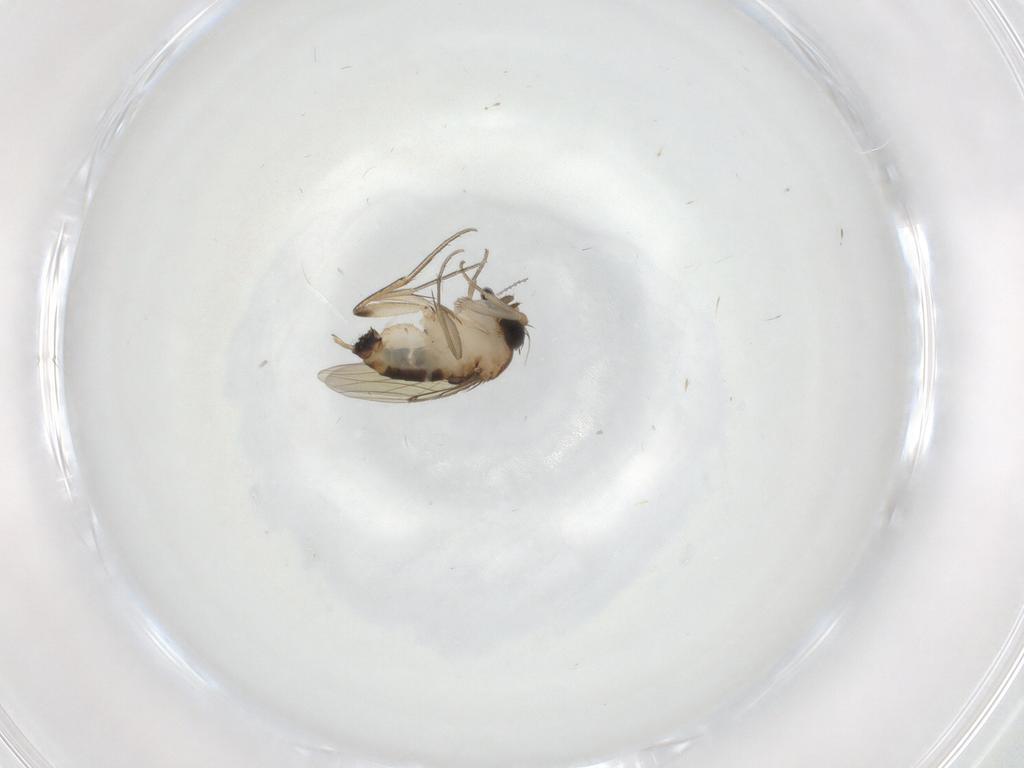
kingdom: Animalia
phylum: Arthropoda
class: Insecta
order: Diptera
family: Phoridae
